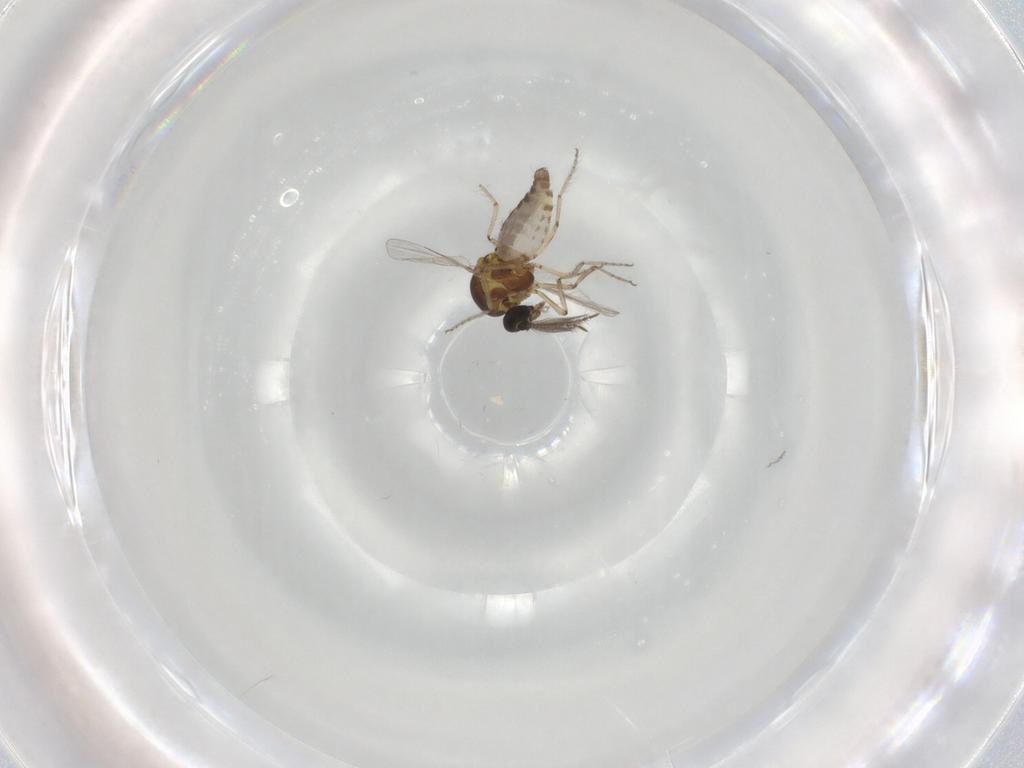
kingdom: Animalia
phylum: Arthropoda
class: Insecta
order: Diptera
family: Ceratopogonidae
